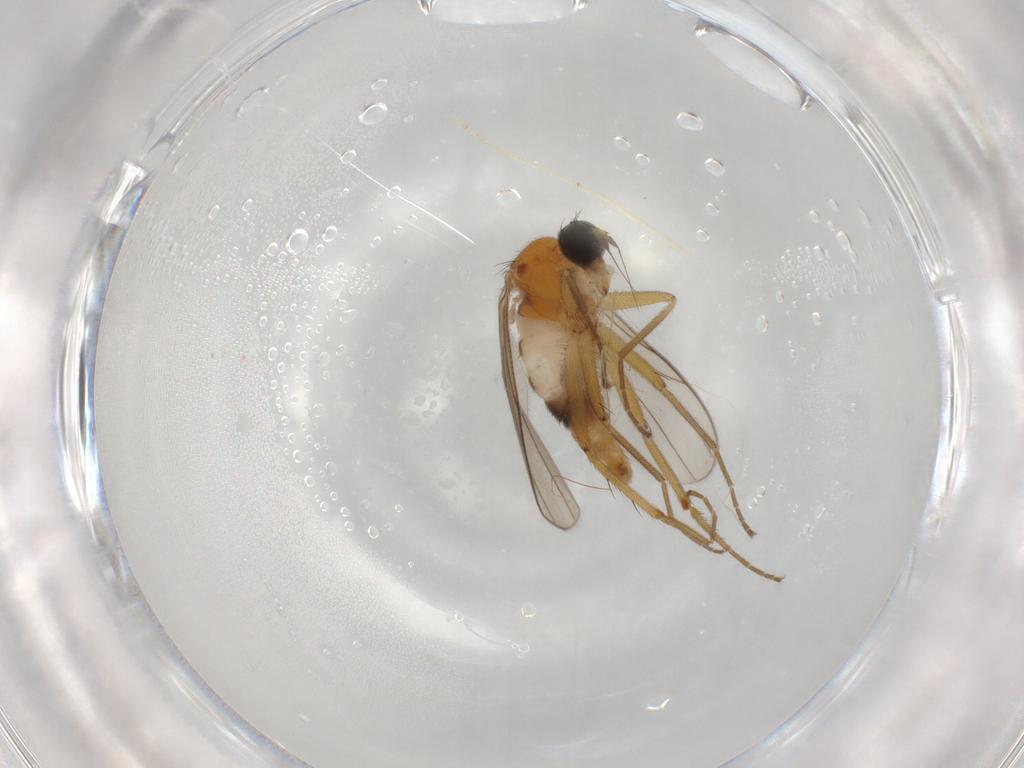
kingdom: Animalia
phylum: Arthropoda
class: Insecta
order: Diptera
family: Hybotidae
